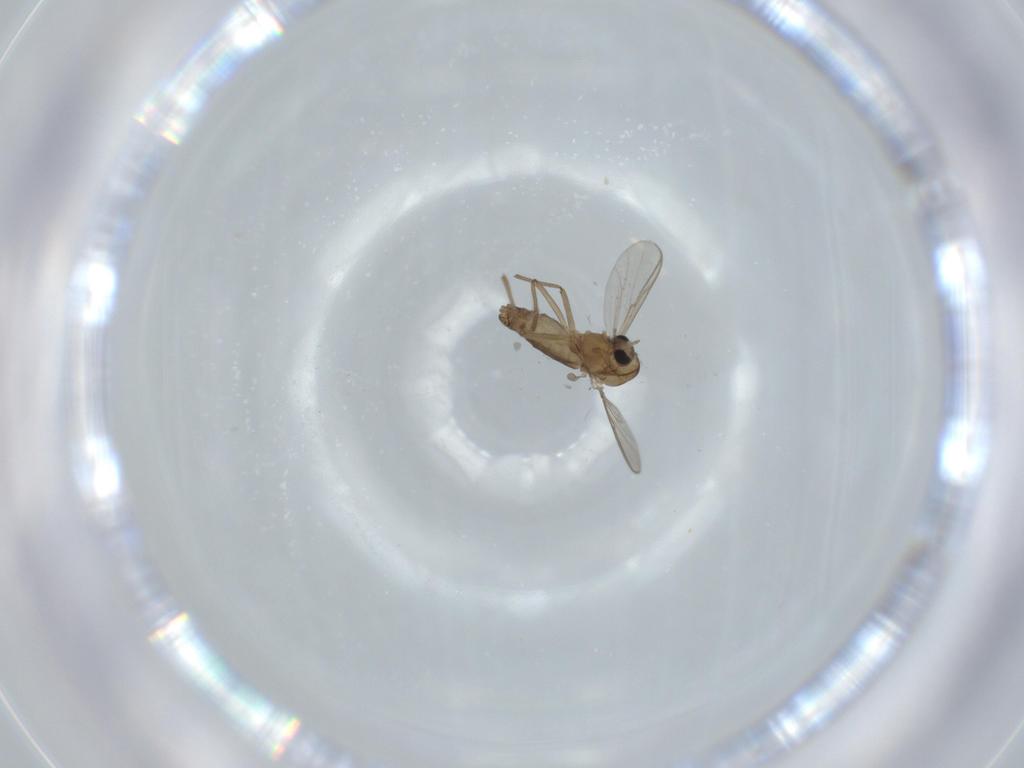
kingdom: Animalia
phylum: Arthropoda
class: Insecta
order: Diptera
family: Chironomidae
